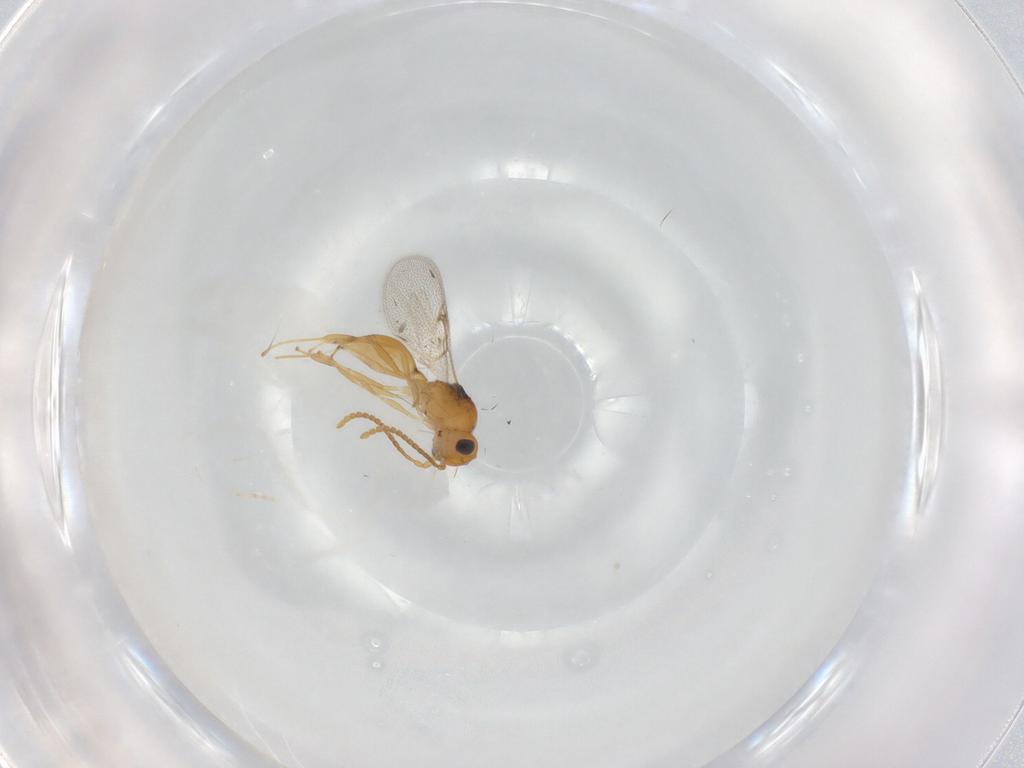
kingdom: Animalia
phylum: Arthropoda
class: Insecta
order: Hymenoptera
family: Diapriidae
